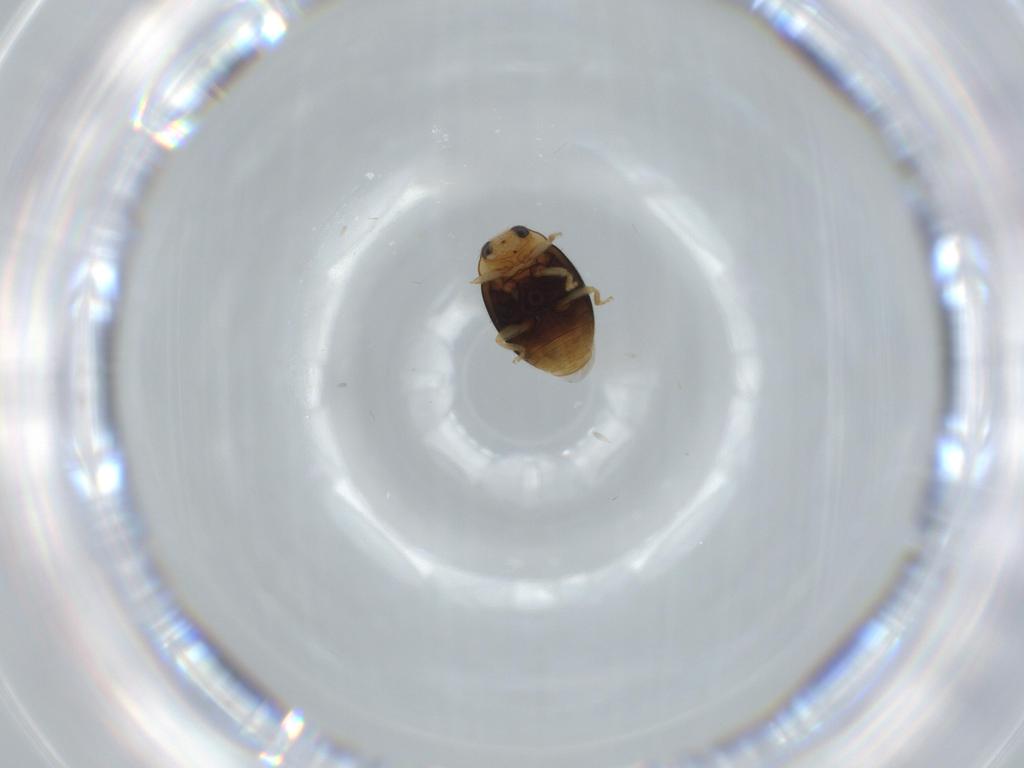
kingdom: Animalia
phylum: Arthropoda
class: Insecta
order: Coleoptera
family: Coccinellidae
